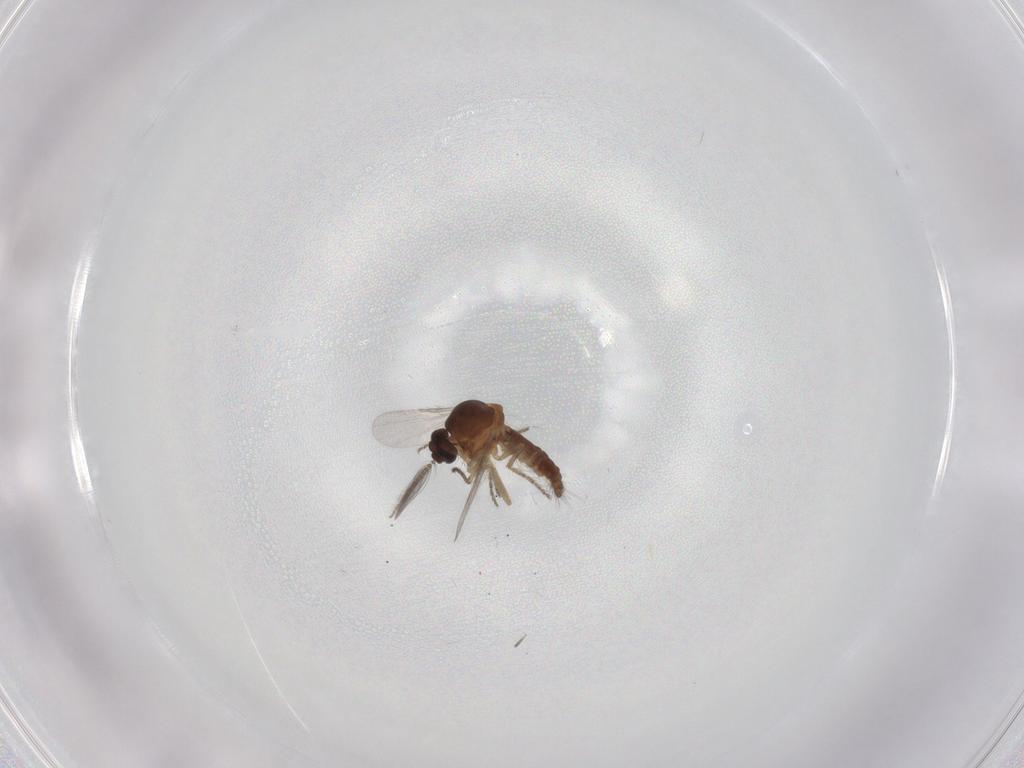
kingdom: Animalia
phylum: Arthropoda
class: Insecta
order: Diptera
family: Ceratopogonidae
